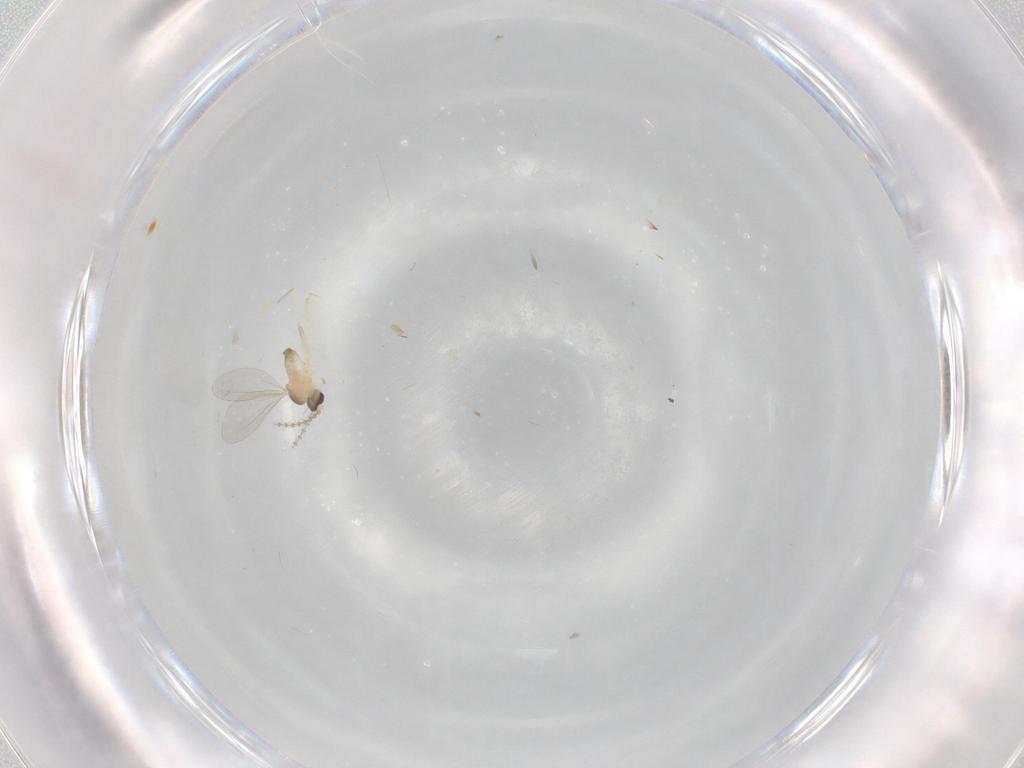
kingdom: Animalia
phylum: Arthropoda
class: Insecta
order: Diptera
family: Cecidomyiidae
